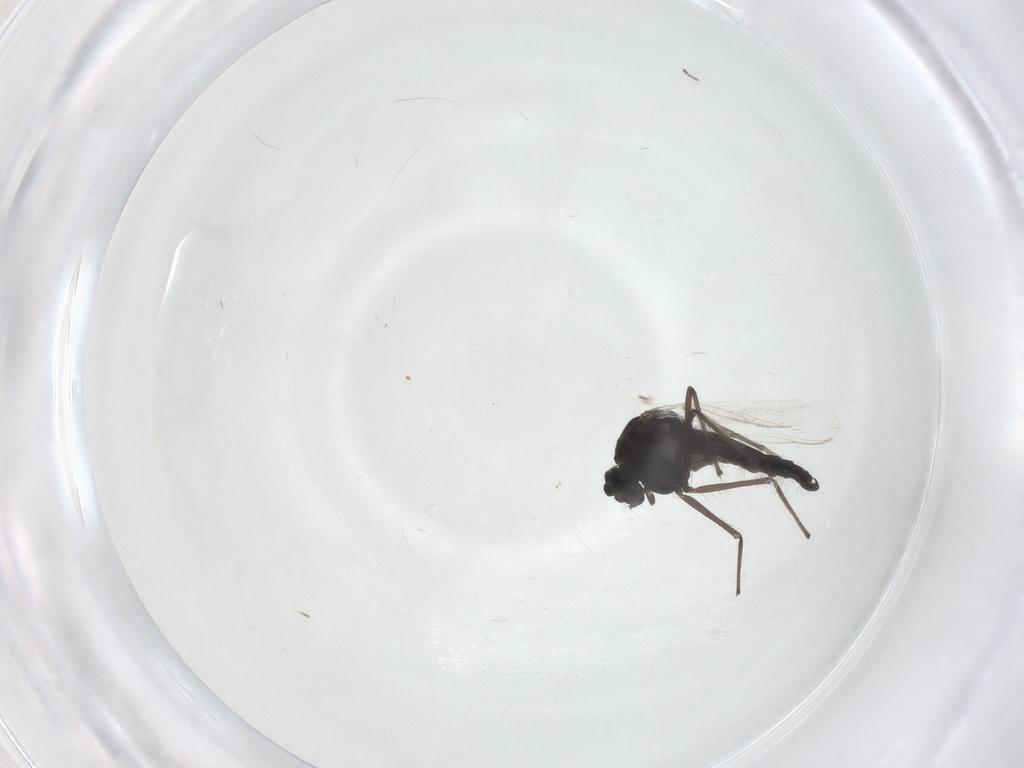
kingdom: Animalia
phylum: Arthropoda
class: Insecta
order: Diptera
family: Chironomidae
